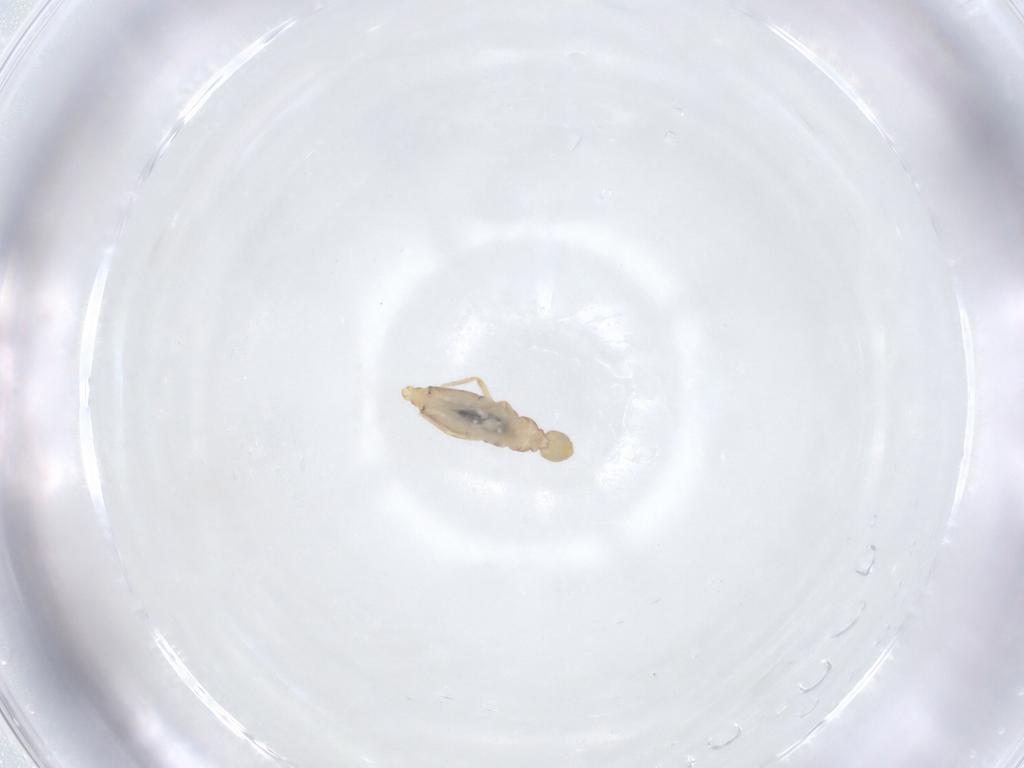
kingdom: Animalia
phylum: Arthropoda
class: Collembola
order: Entomobryomorpha
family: Entomobryidae
